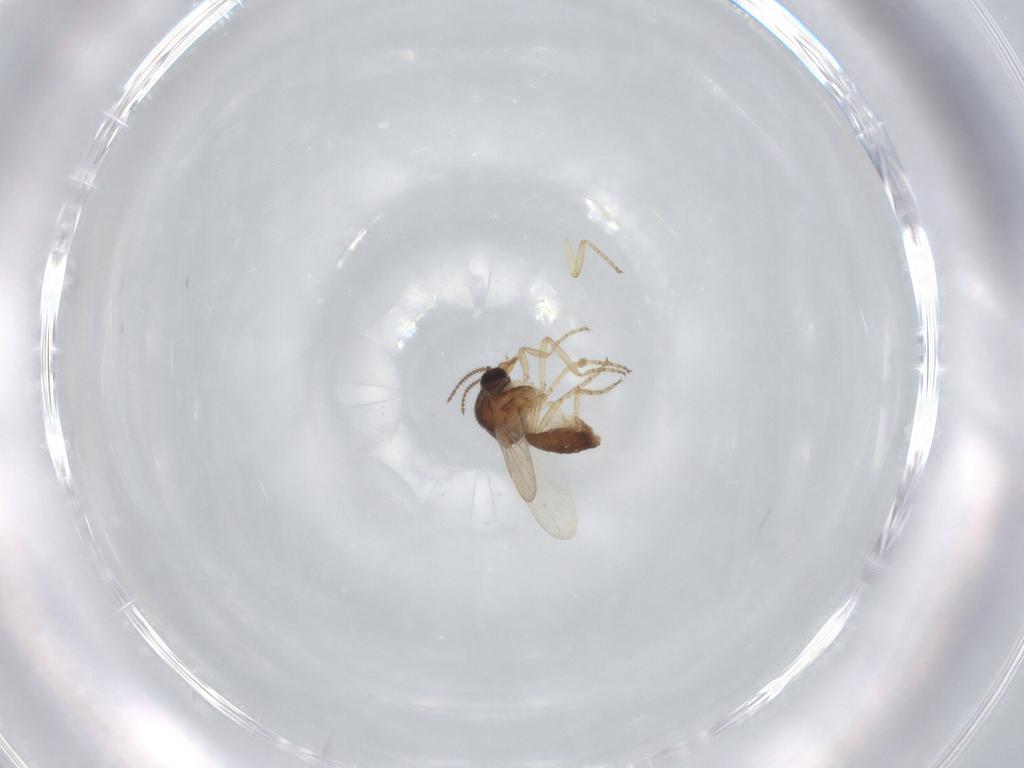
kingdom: Animalia
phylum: Arthropoda
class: Insecta
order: Diptera
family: Ceratopogonidae
